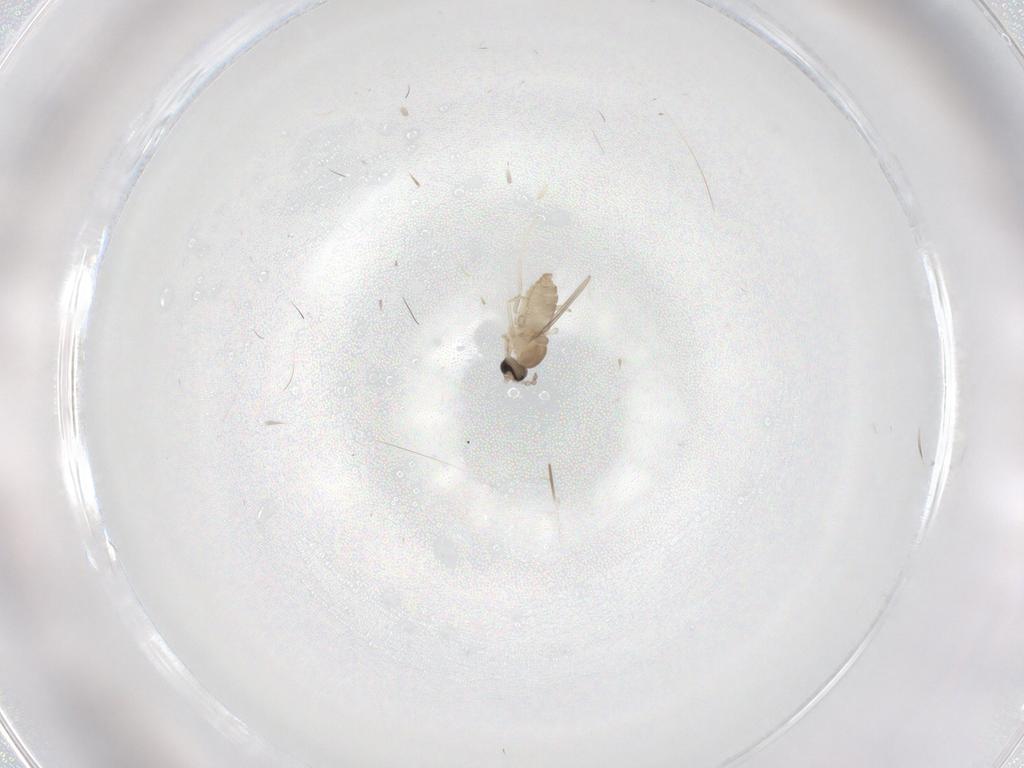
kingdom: Animalia
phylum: Arthropoda
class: Insecta
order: Diptera
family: Cecidomyiidae
